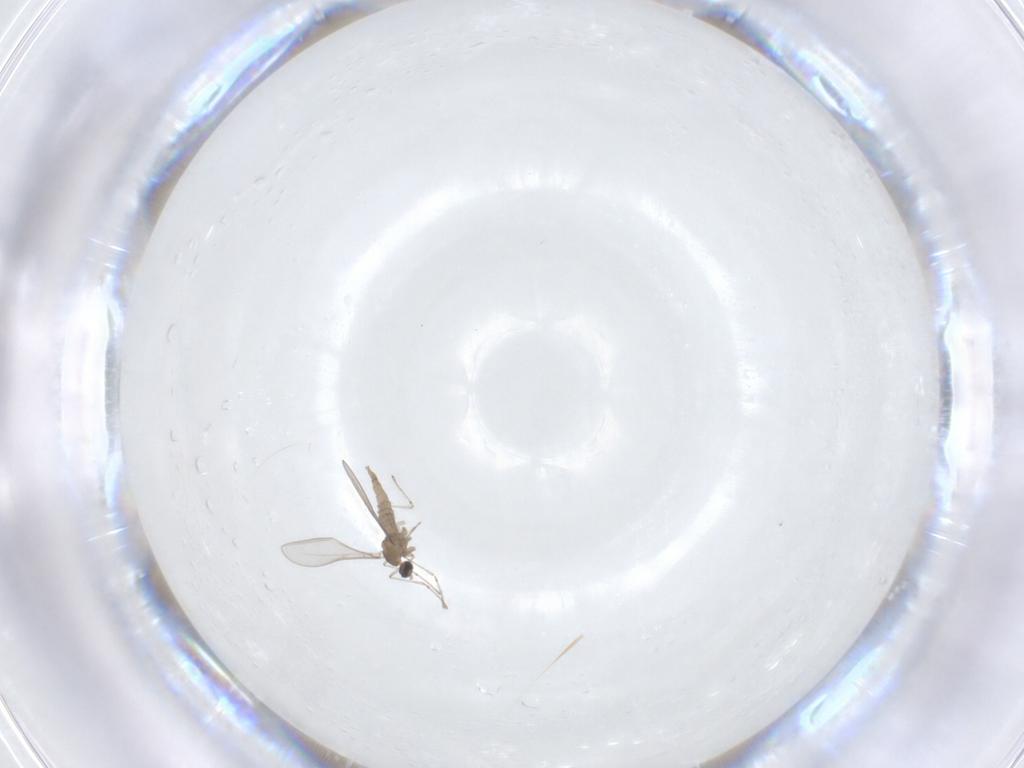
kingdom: Animalia
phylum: Arthropoda
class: Insecta
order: Diptera
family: Cecidomyiidae
